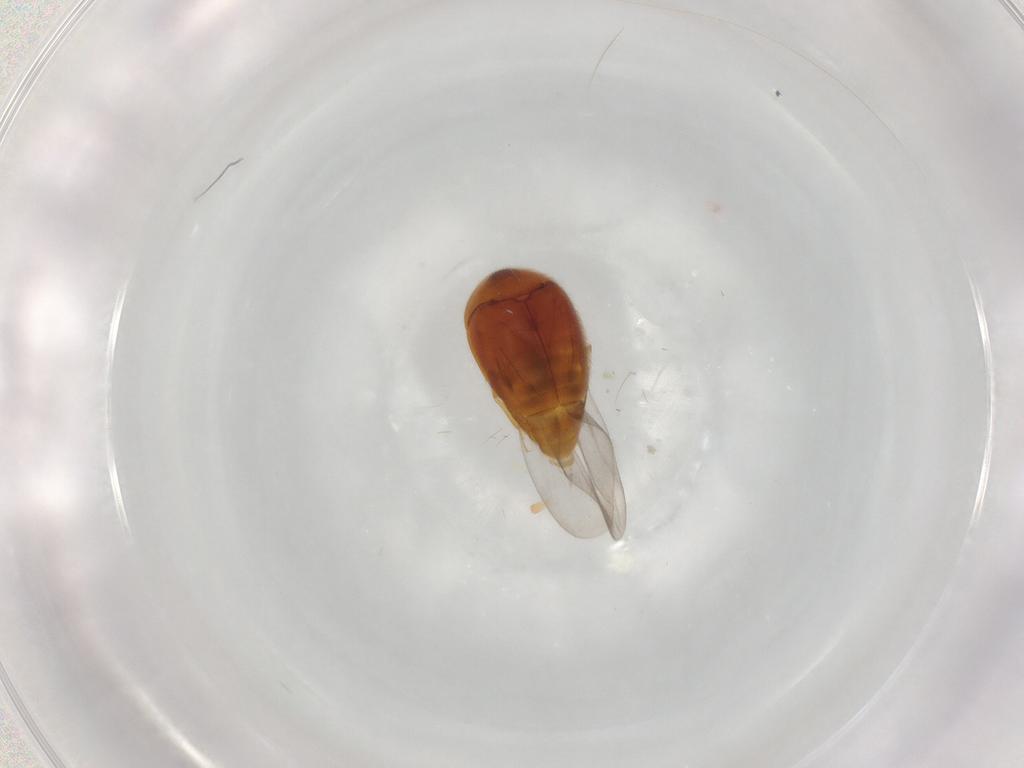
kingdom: Animalia
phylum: Arthropoda
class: Insecta
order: Coleoptera
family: Corylophidae
